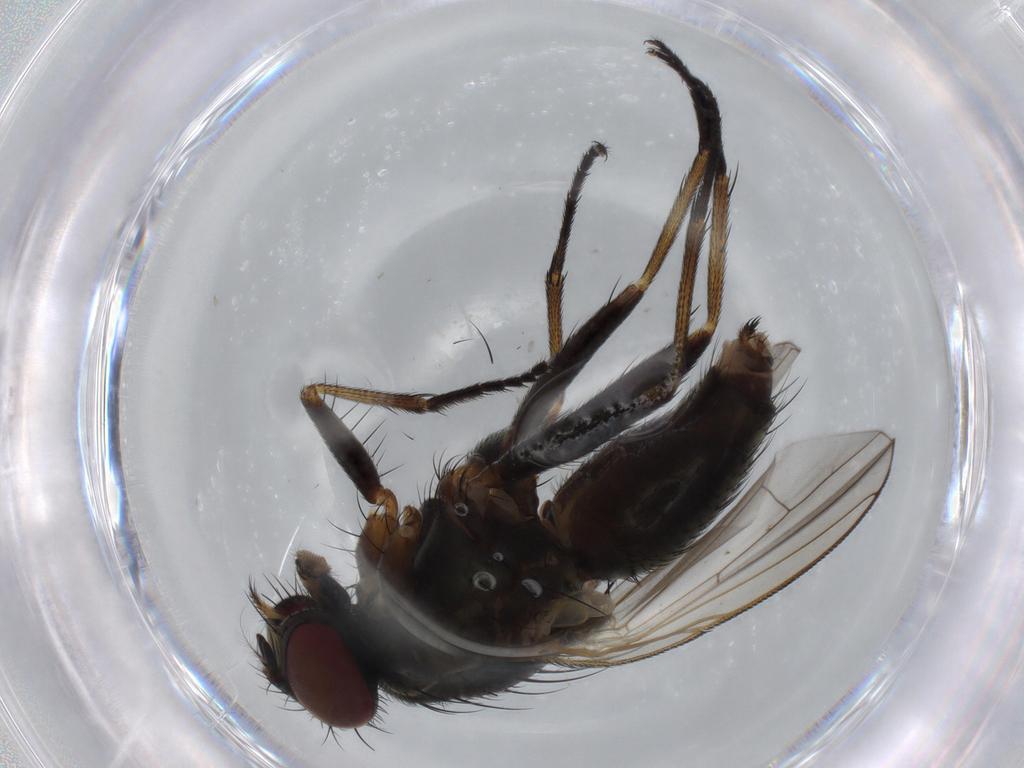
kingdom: Animalia
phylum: Arthropoda
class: Insecta
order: Diptera
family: Muscidae
